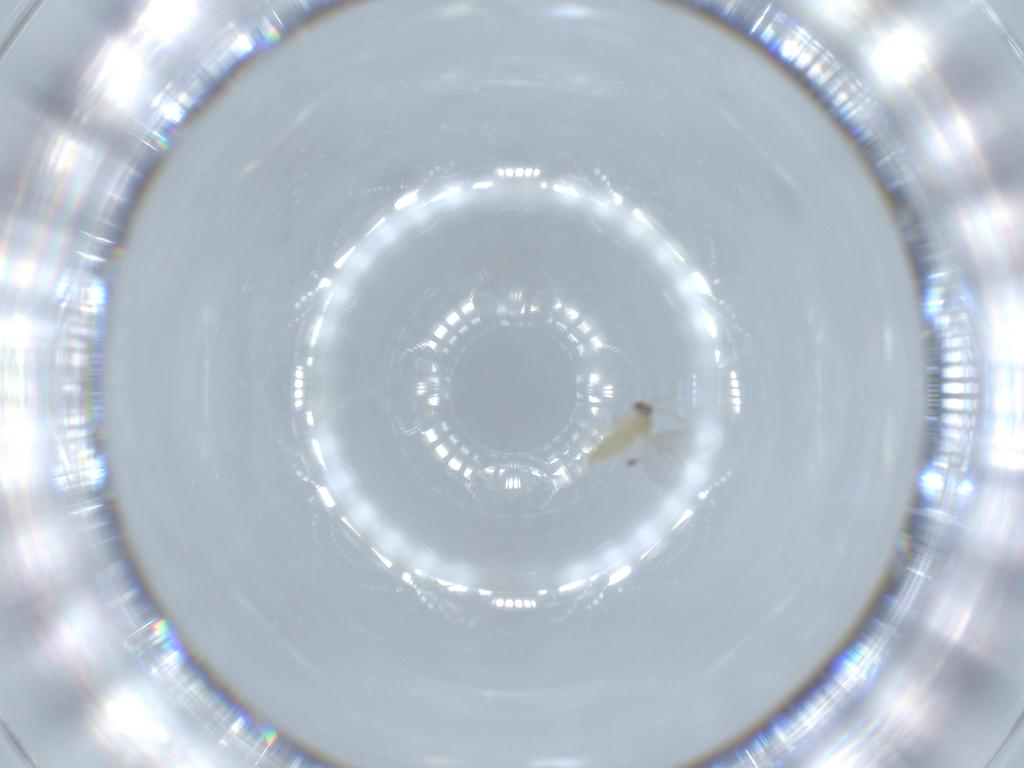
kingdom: Animalia
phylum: Arthropoda
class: Insecta
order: Diptera
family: Cecidomyiidae
